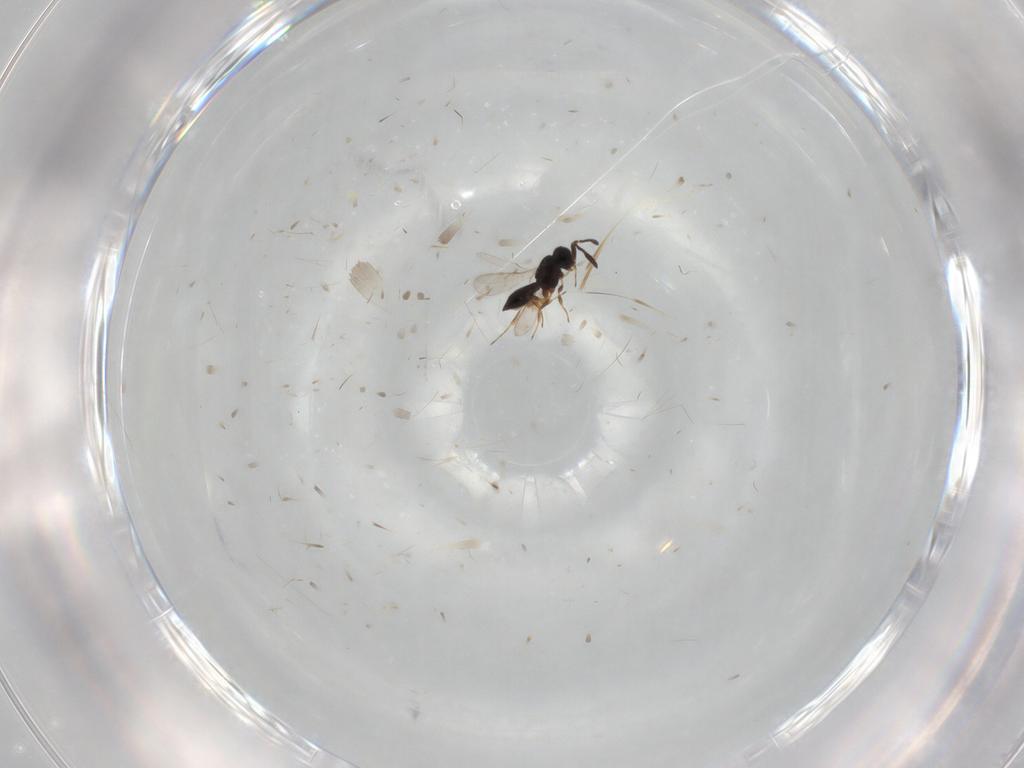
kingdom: Animalia
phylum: Arthropoda
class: Insecta
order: Hymenoptera
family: Scelionidae
